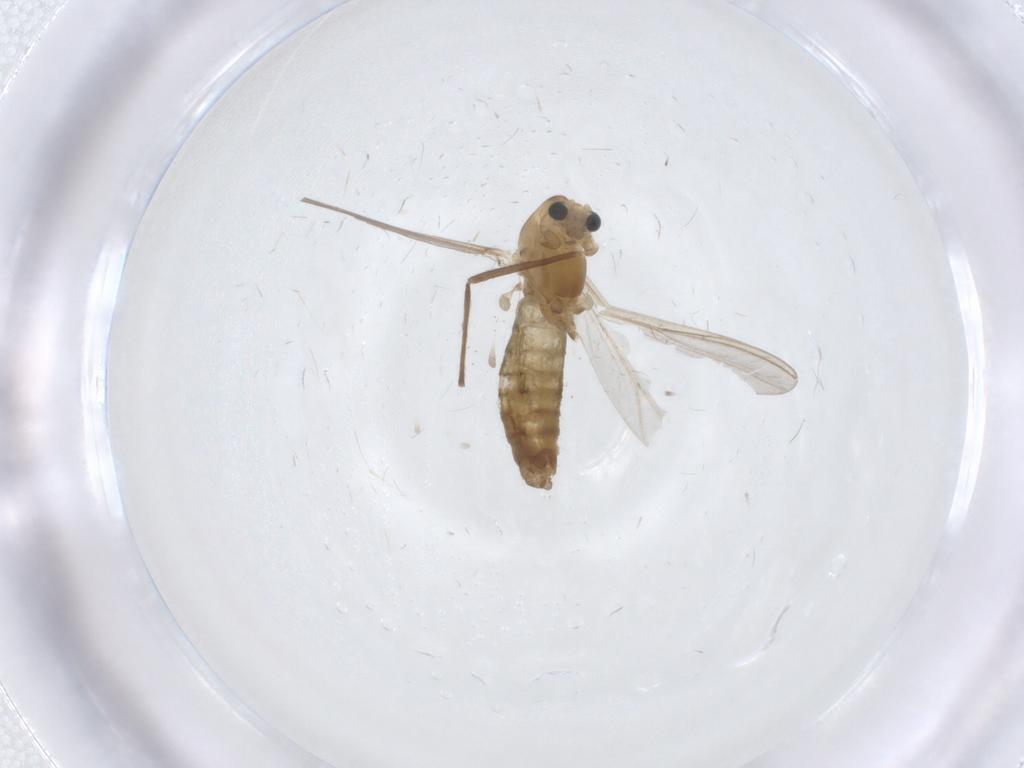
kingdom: Animalia
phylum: Arthropoda
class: Insecta
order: Diptera
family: Chironomidae
